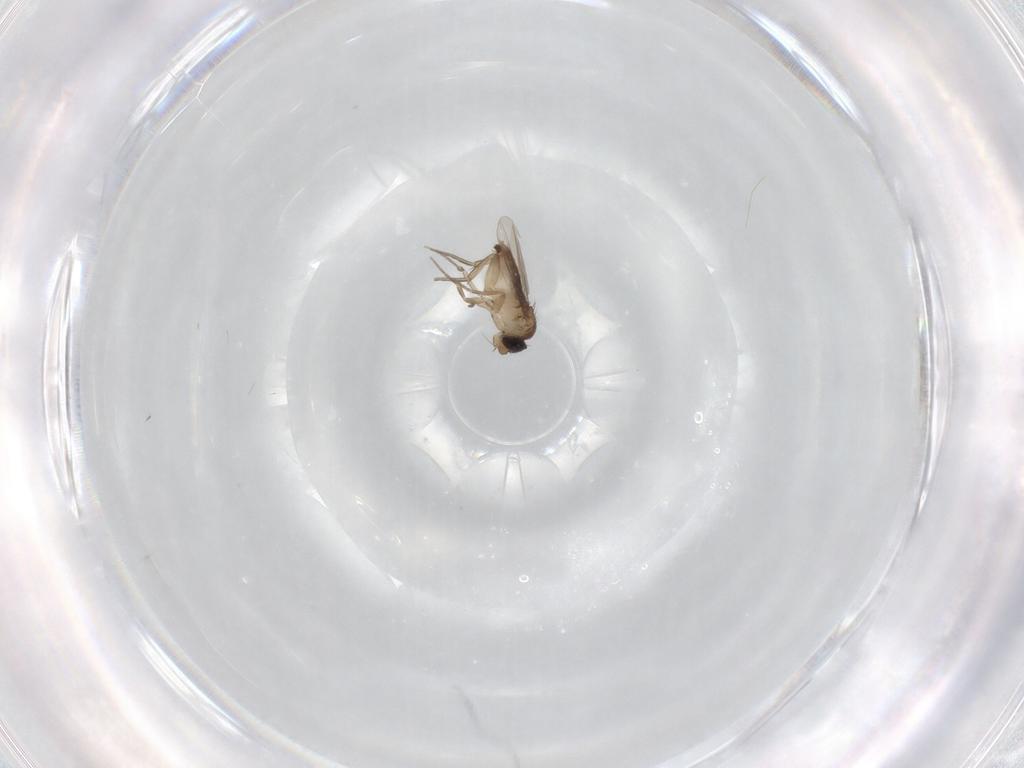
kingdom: Animalia
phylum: Arthropoda
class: Insecta
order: Diptera
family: Phoridae
